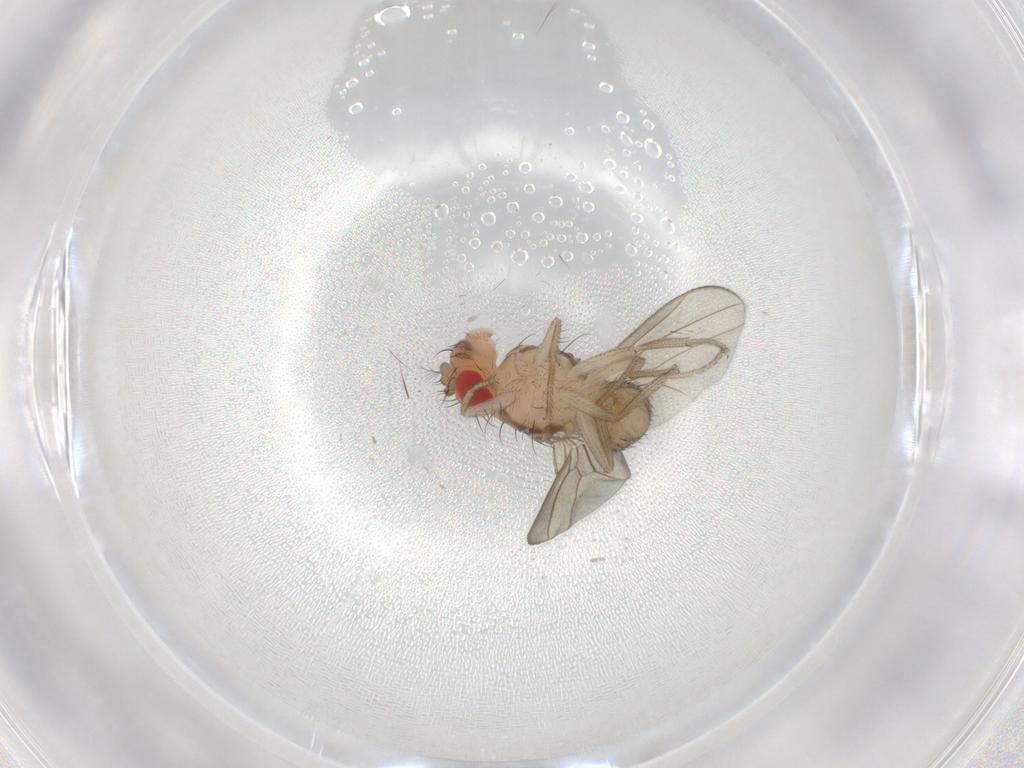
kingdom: Animalia
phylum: Arthropoda
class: Insecta
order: Diptera
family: Drosophilidae
